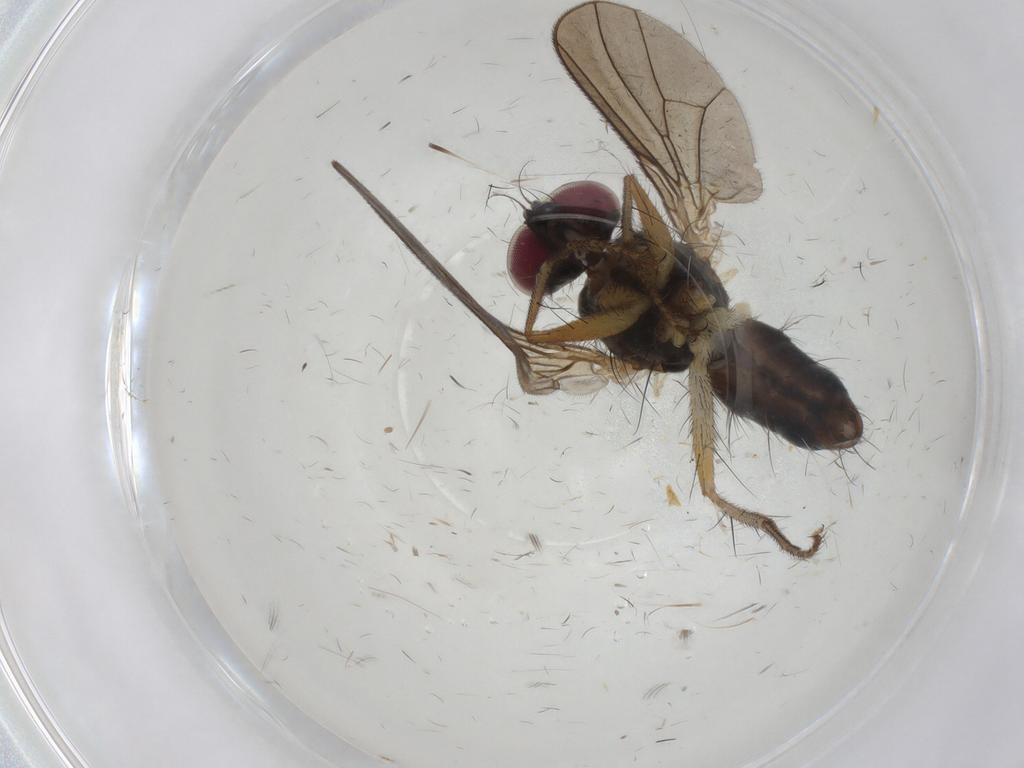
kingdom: Animalia
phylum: Arthropoda
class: Insecta
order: Diptera
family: Anthomyiidae
